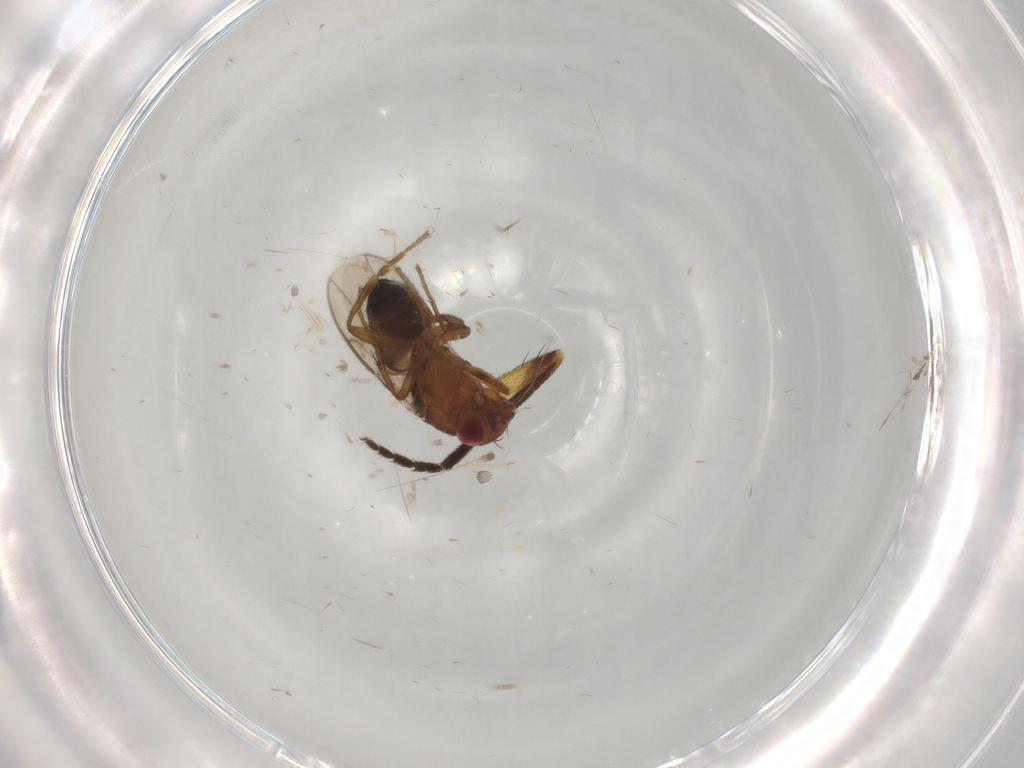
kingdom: Animalia
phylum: Arthropoda
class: Insecta
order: Diptera
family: Muscidae
